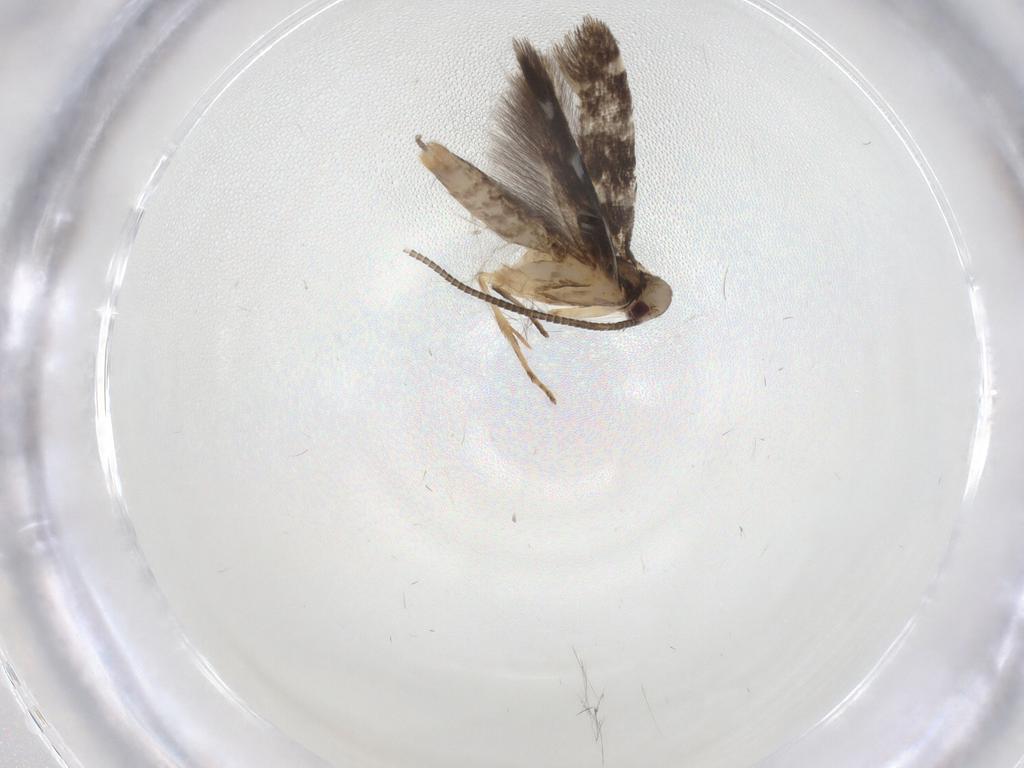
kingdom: Animalia
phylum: Arthropoda
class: Insecta
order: Lepidoptera
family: Gracillariidae
